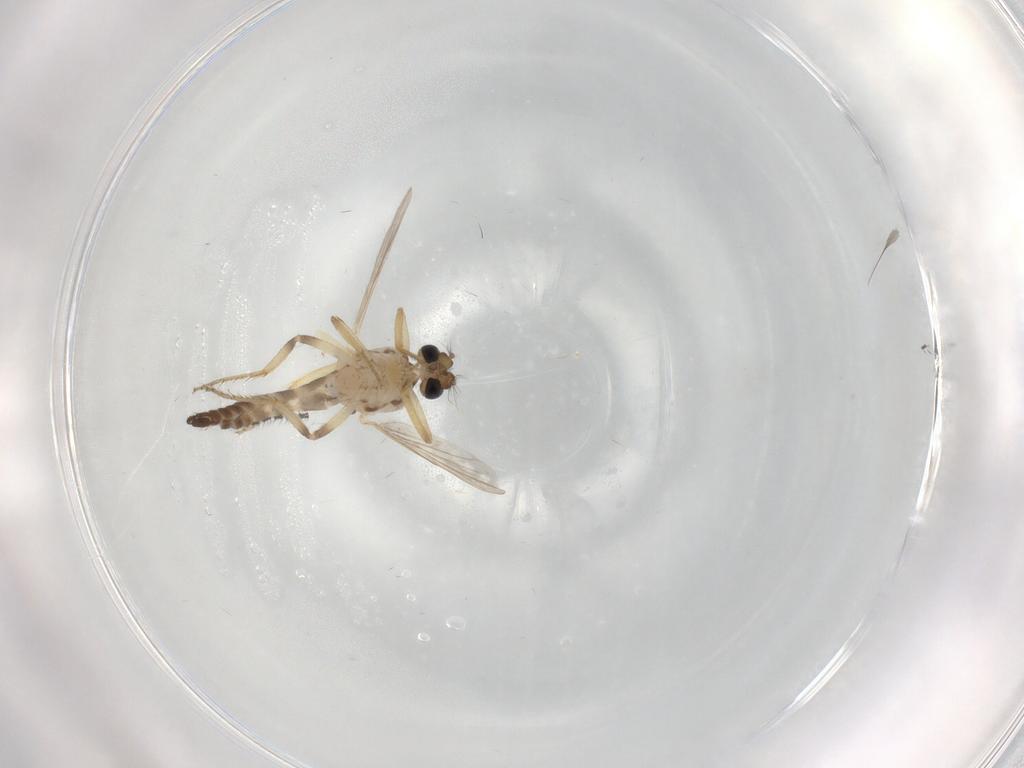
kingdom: Animalia
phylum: Arthropoda
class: Insecta
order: Diptera
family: Ceratopogonidae
